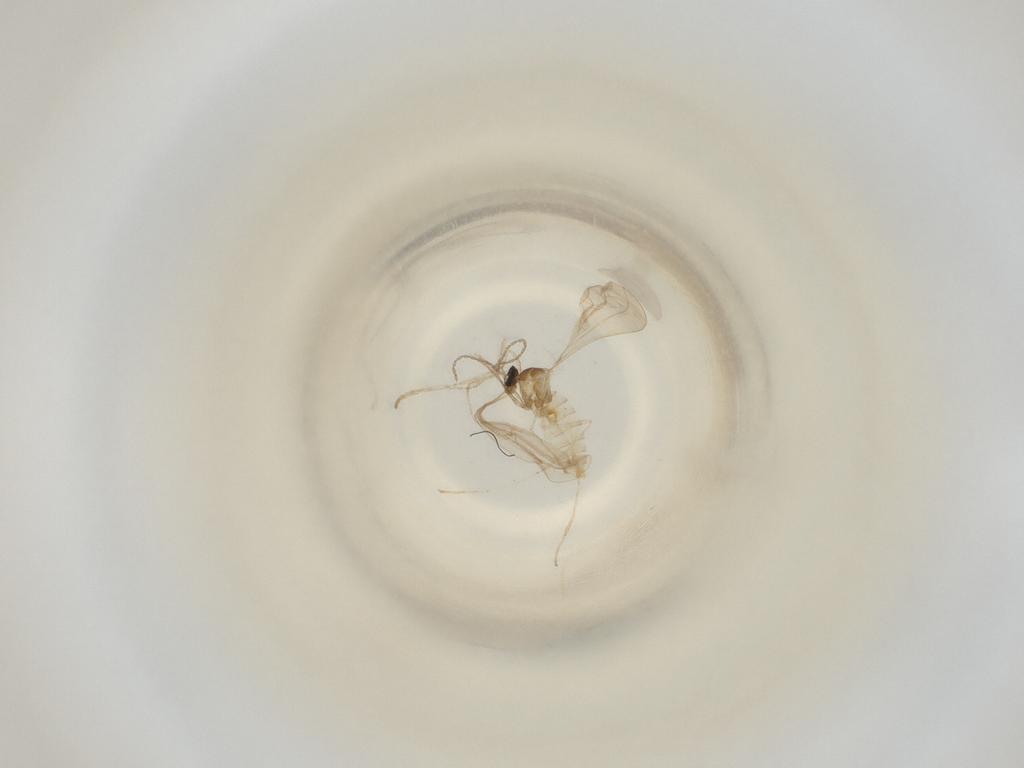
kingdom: Animalia
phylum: Arthropoda
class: Insecta
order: Diptera
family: Cecidomyiidae
